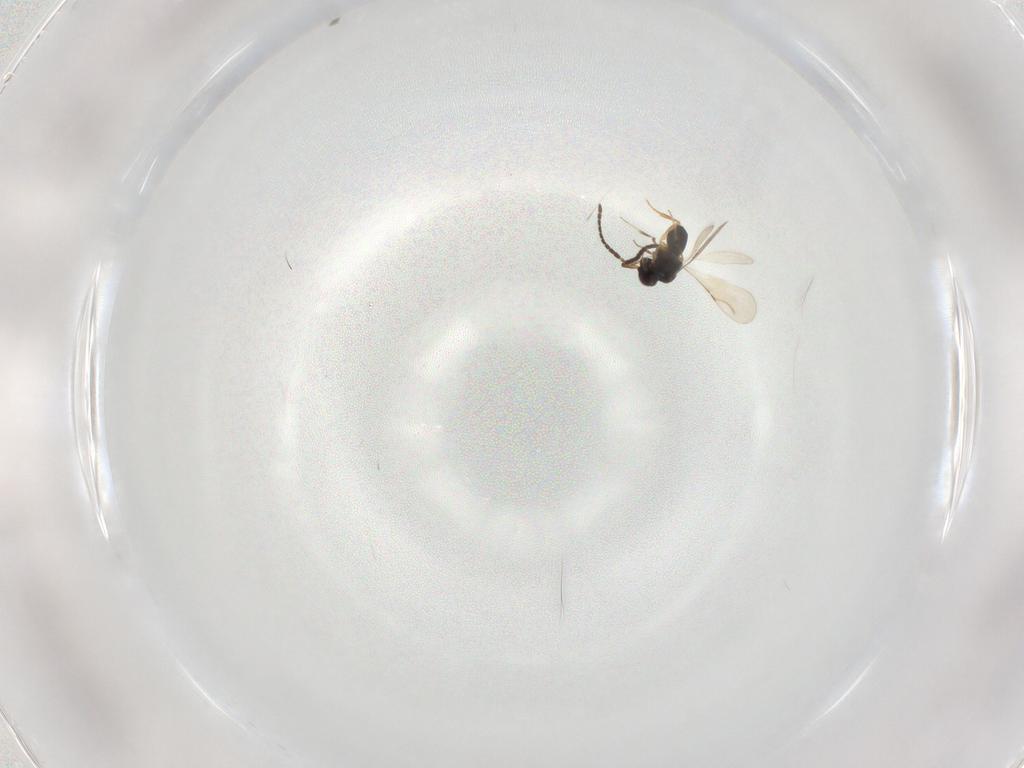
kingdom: Animalia
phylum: Arthropoda
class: Insecta
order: Hymenoptera
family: Ceraphronidae
